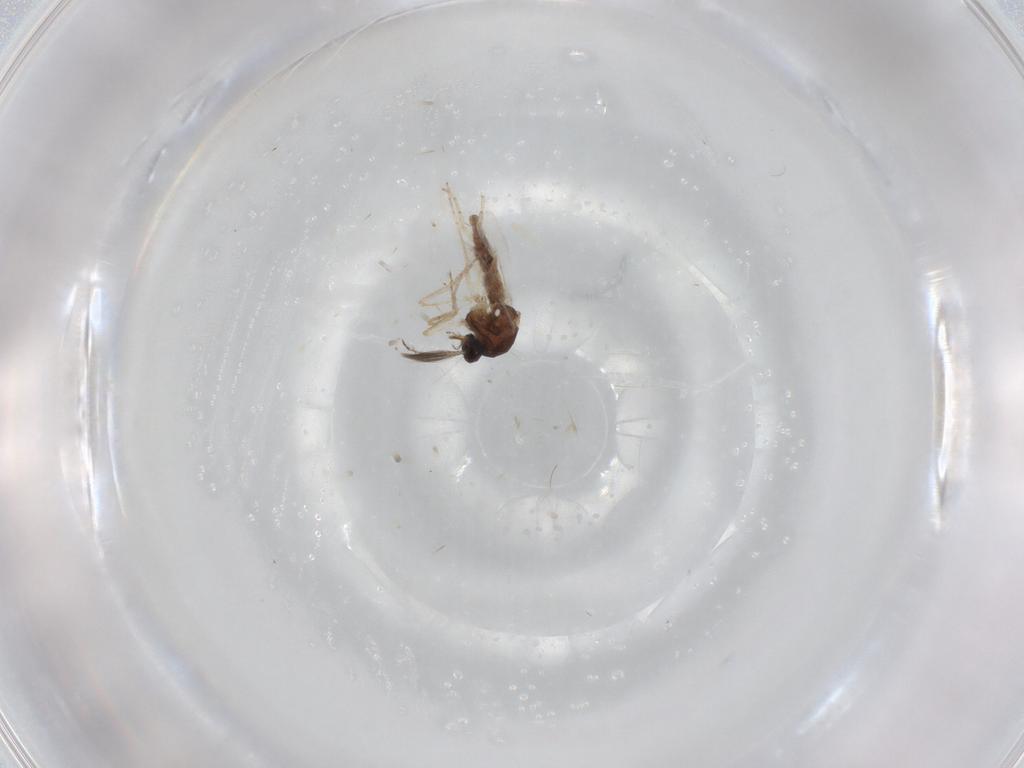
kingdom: Animalia
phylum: Arthropoda
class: Insecta
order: Diptera
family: Ceratopogonidae
